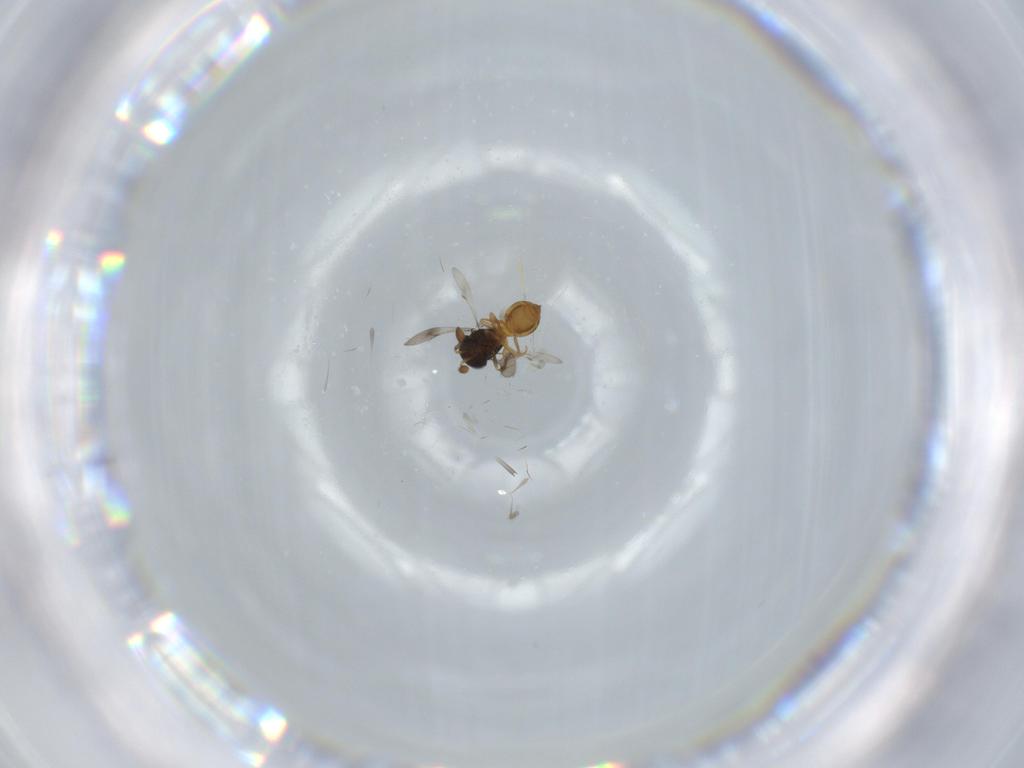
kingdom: Animalia
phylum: Arthropoda
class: Insecta
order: Hymenoptera
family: Scelionidae
